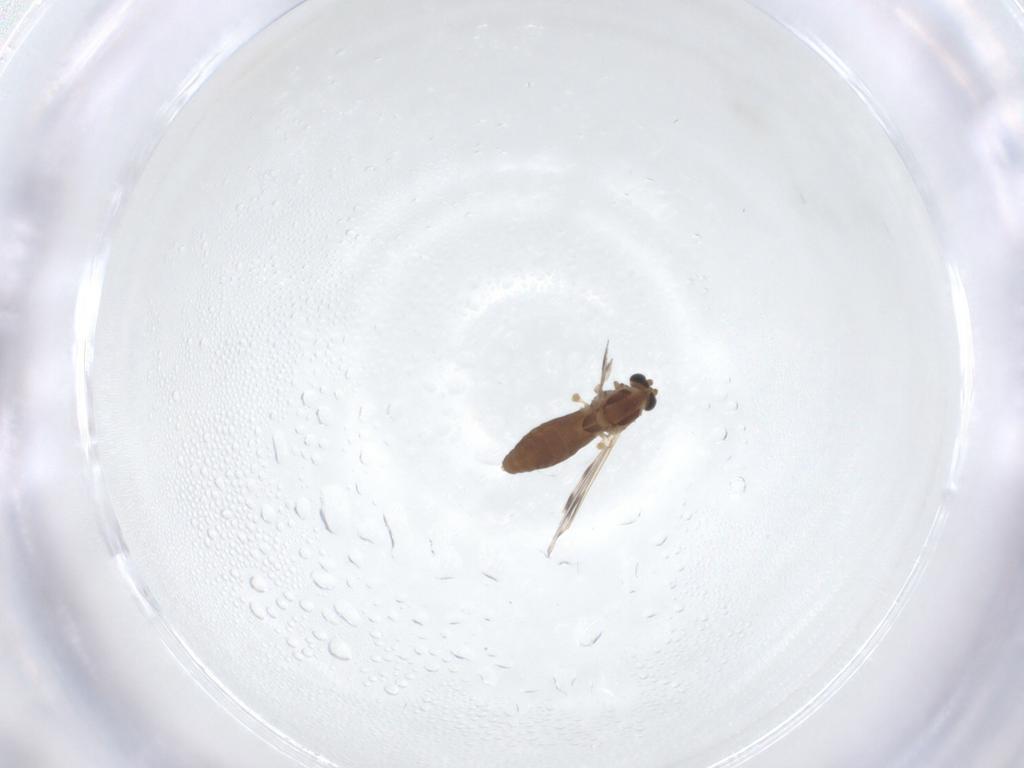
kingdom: Animalia
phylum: Arthropoda
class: Insecta
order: Diptera
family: Chironomidae
